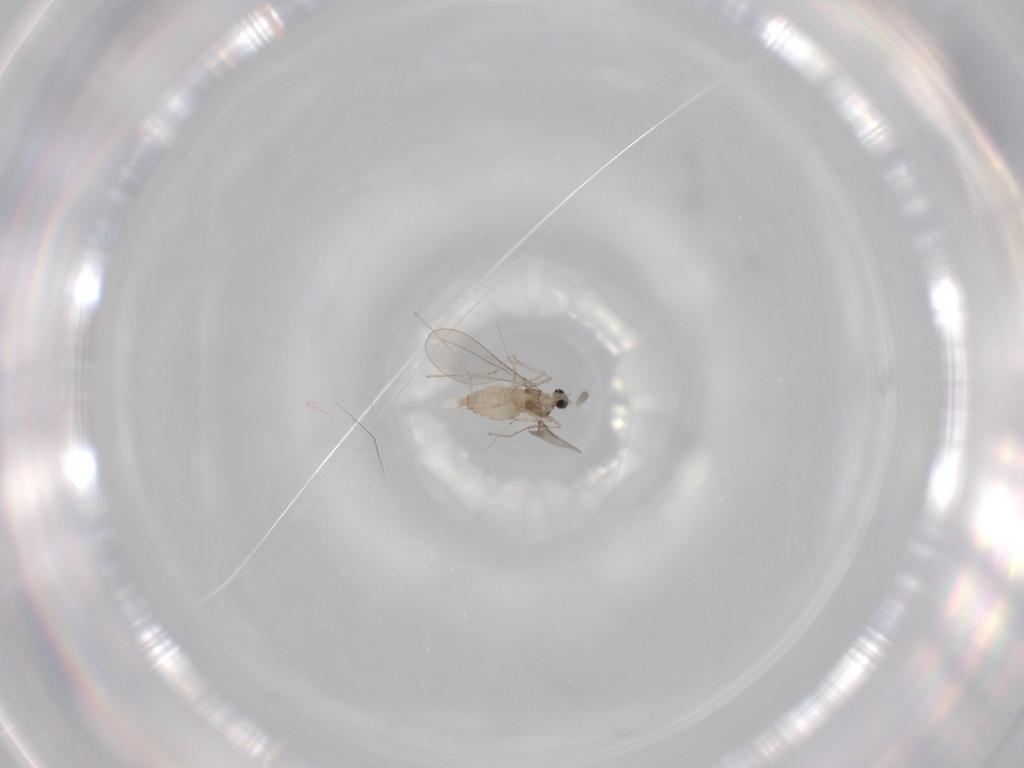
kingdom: Animalia
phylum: Arthropoda
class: Insecta
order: Diptera
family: Cecidomyiidae
